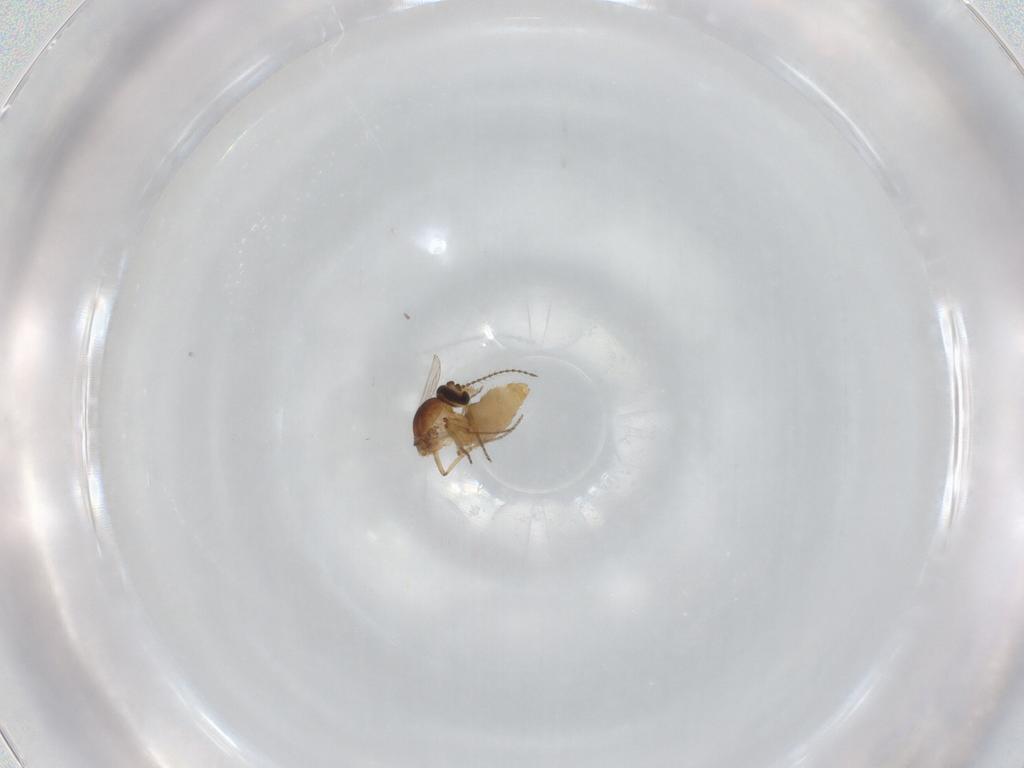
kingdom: Animalia
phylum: Arthropoda
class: Insecta
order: Diptera
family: Ceratopogonidae
